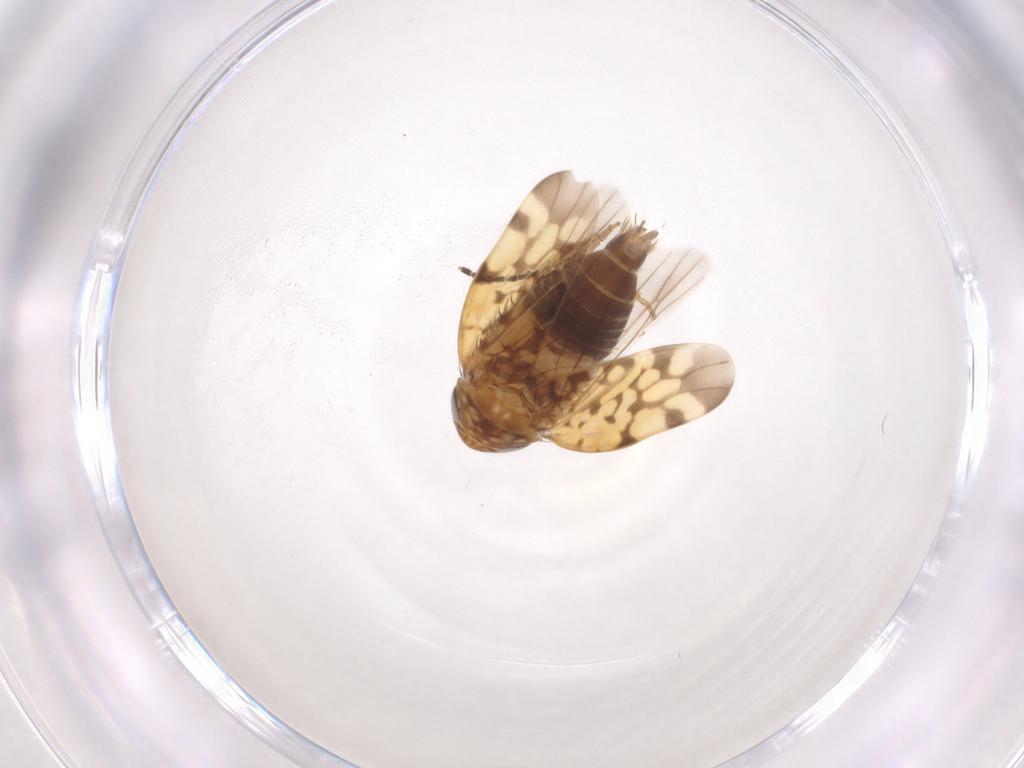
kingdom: Animalia
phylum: Arthropoda
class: Insecta
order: Hemiptera
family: Cicadellidae
